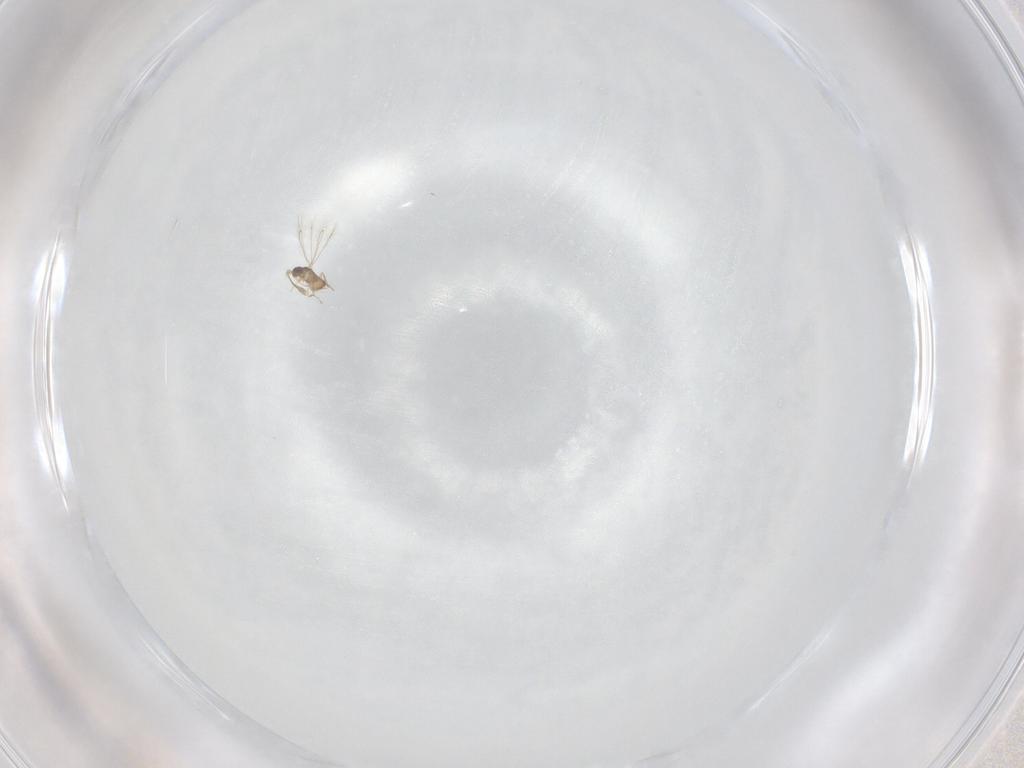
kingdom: Animalia
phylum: Arthropoda
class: Insecta
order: Hymenoptera
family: Mymaridae
